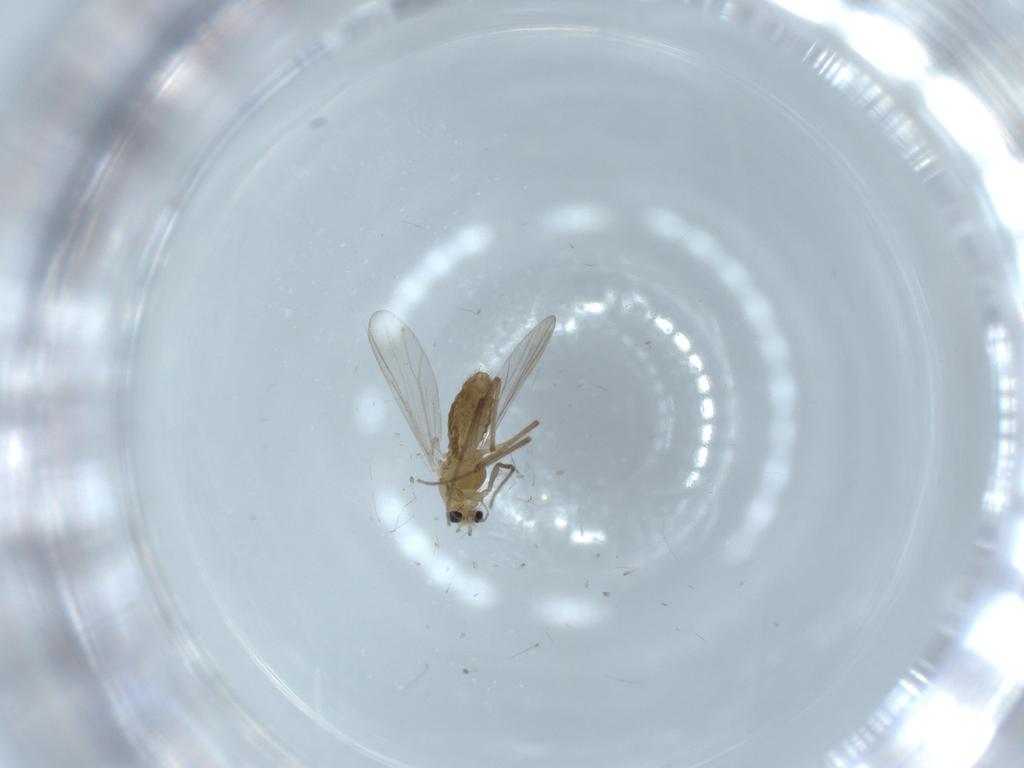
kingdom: Animalia
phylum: Arthropoda
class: Insecta
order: Diptera
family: Chironomidae
